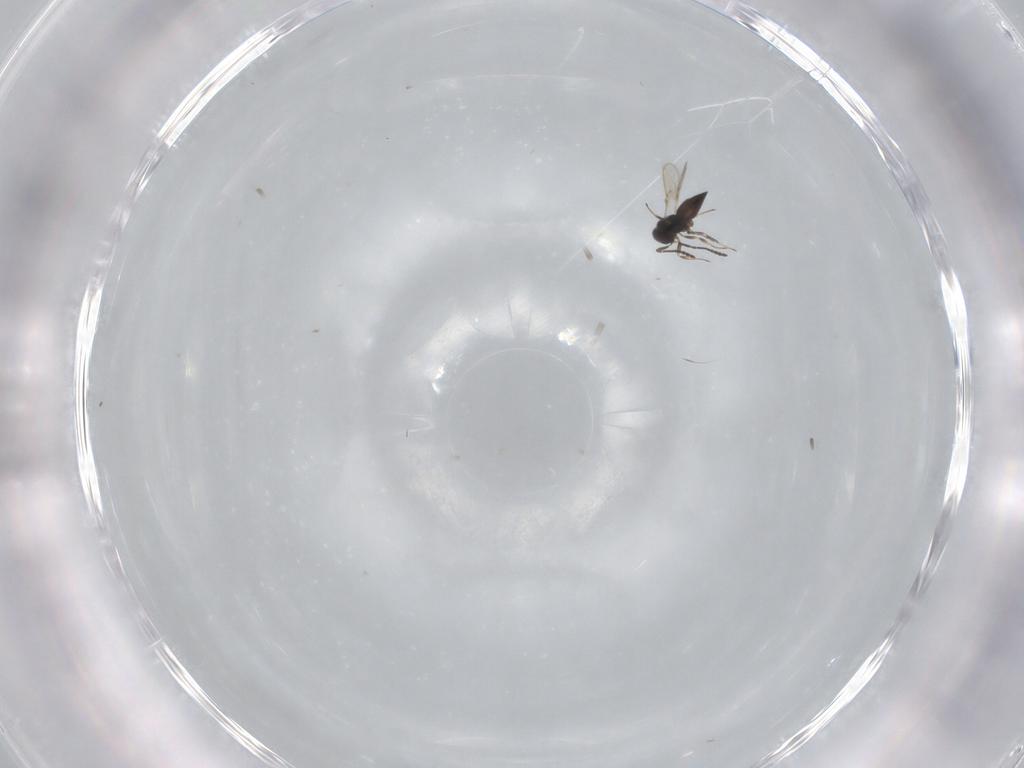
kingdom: Animalia
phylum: Arthropoda
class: Insecta
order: Hymenoptera
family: Scelionidae
